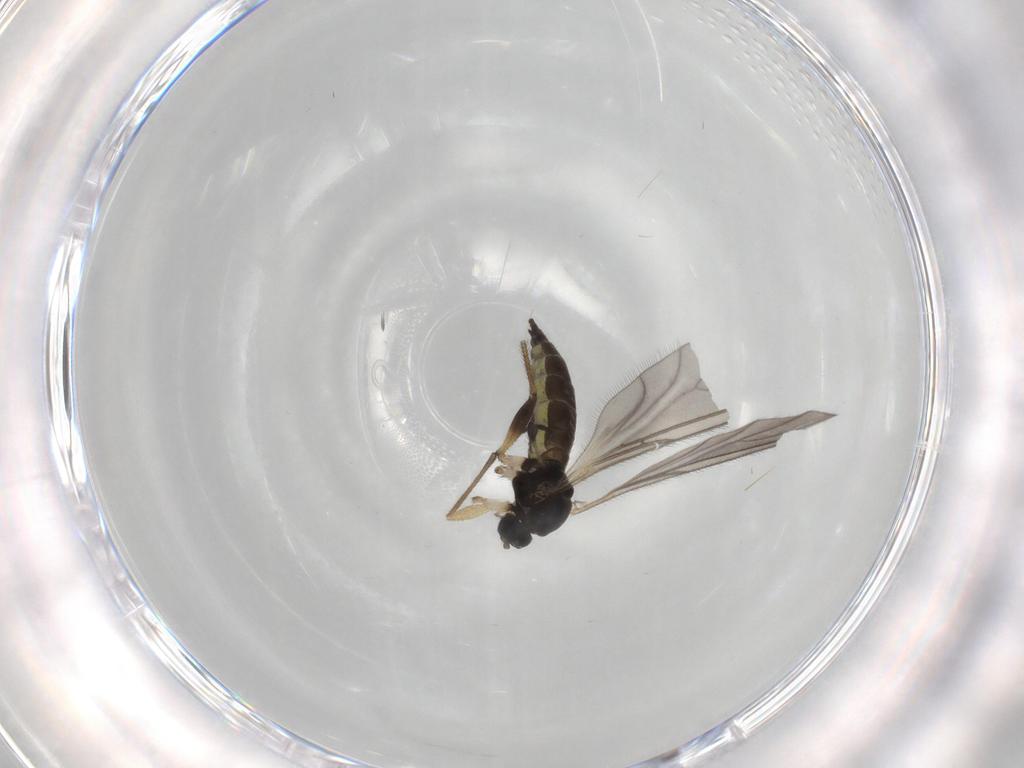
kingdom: Animalia
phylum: Arthropoda
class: Insecta
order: Diptera
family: Sciaridae
